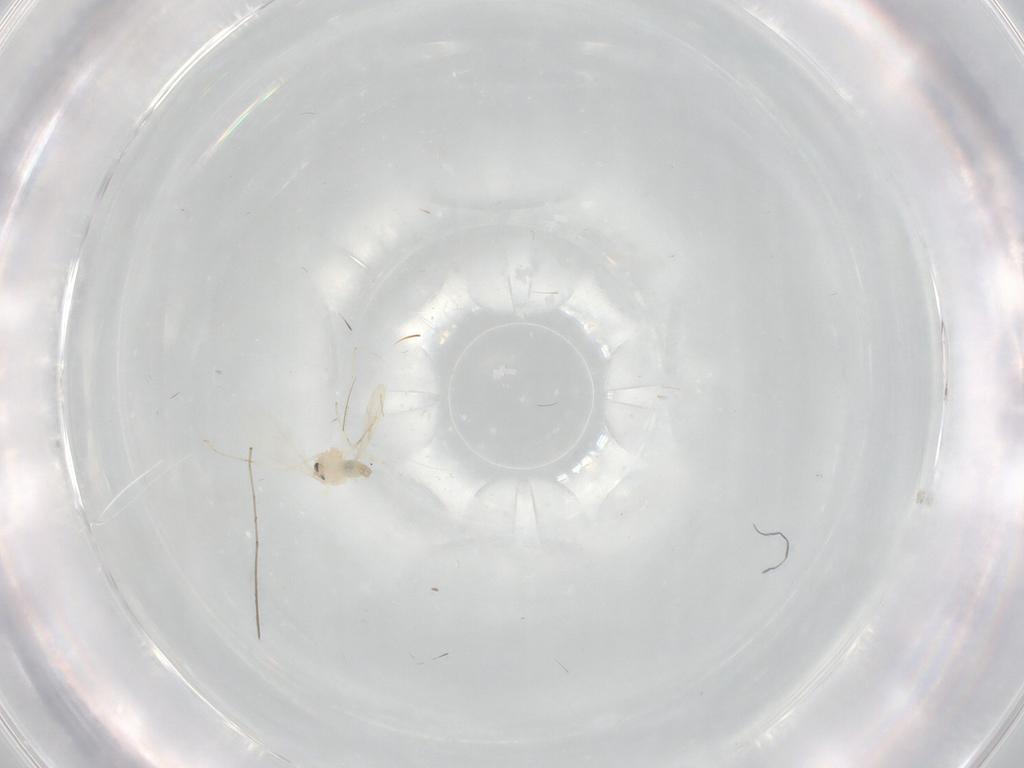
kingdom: Animalia
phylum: Arthropoda
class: Insecta
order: Diptera
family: Cecidomyiidae
